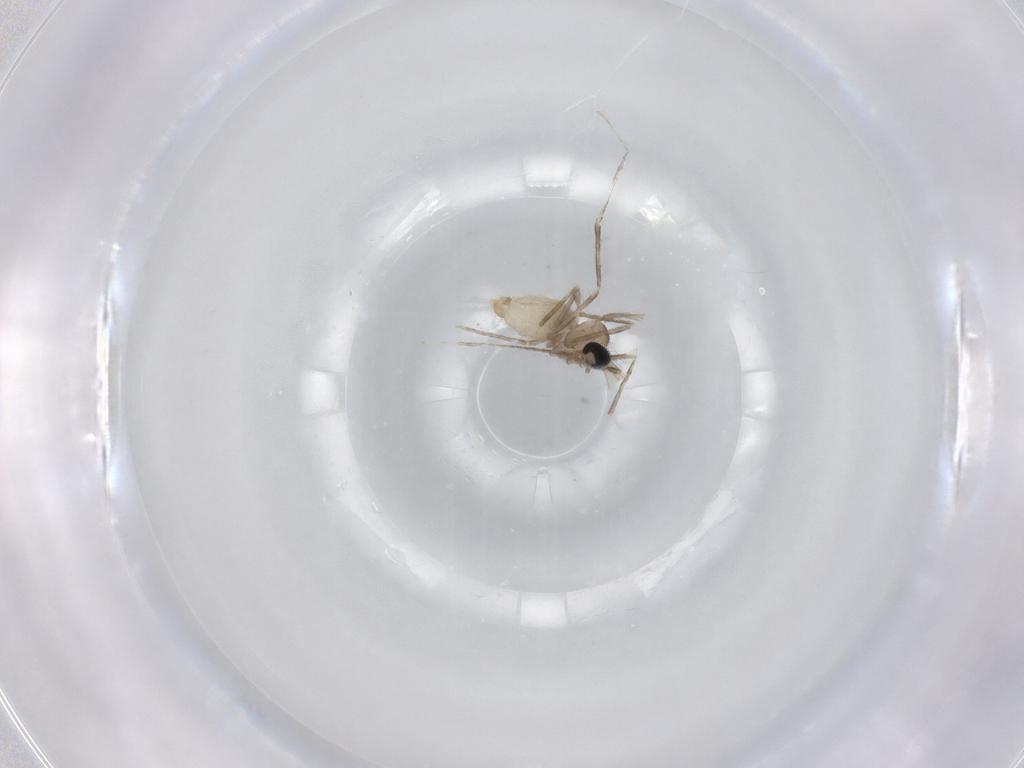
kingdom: Animalia
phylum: Arthropoda
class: Insecta
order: Diptera
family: Cecidomyiidae
